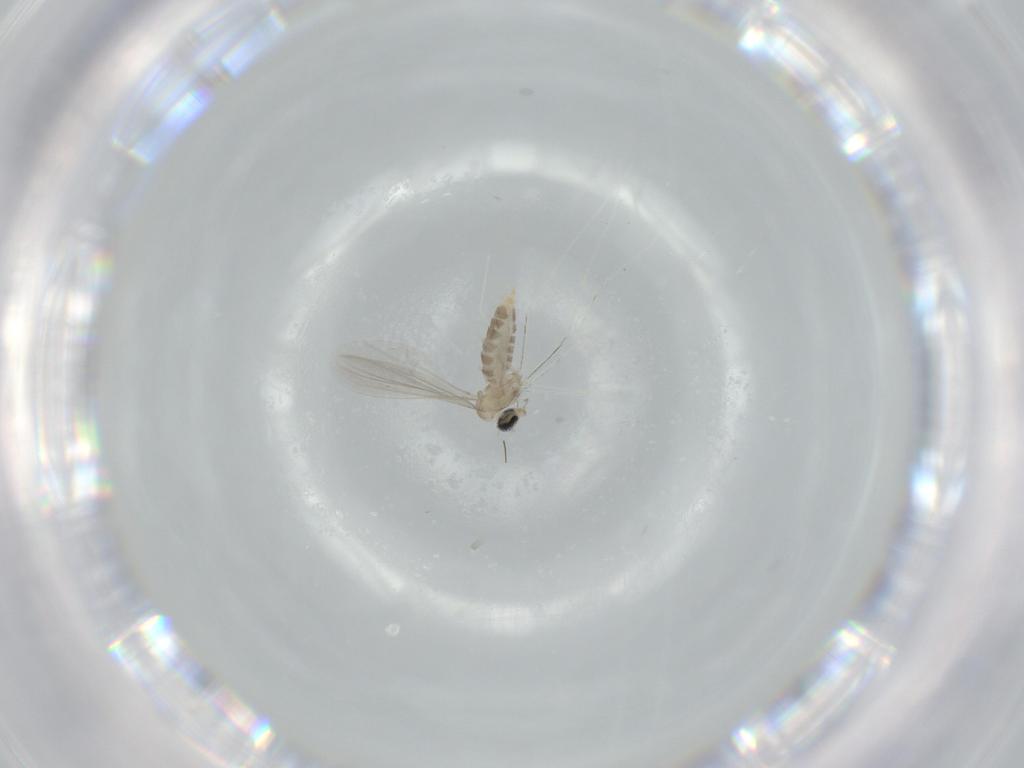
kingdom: Animalia
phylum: Arthropoda
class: Insecta
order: Diptera
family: Cecidomyiidae
